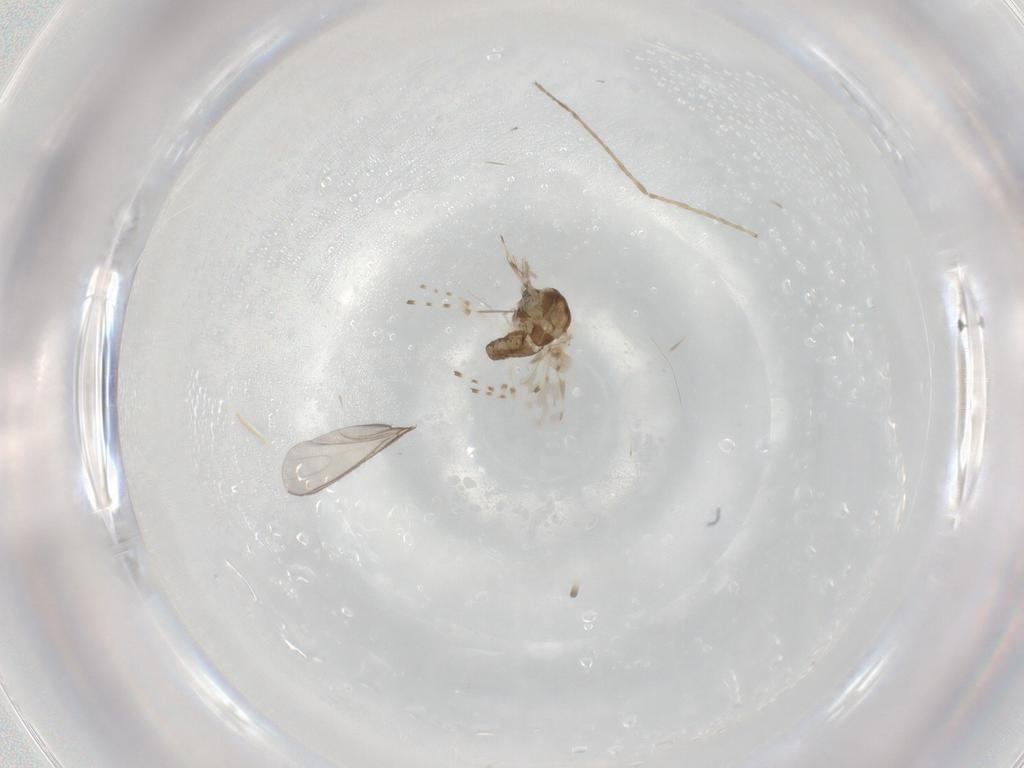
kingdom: Animalia
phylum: Arthropoda
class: Insecta
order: Diptera
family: Chironomidae
